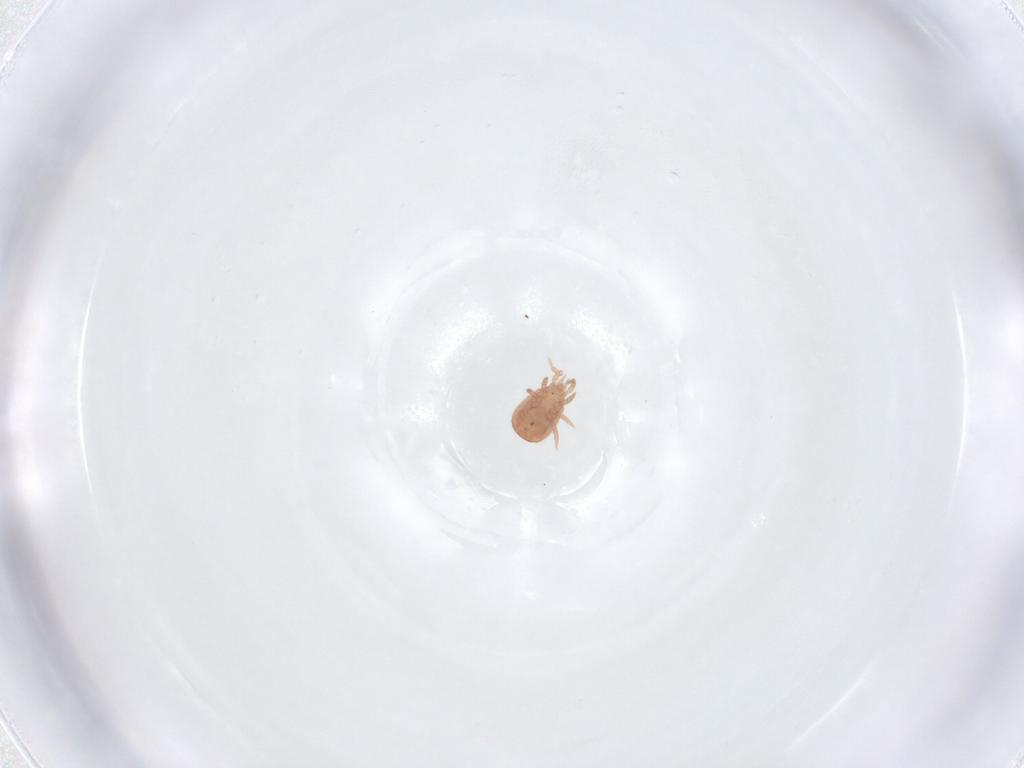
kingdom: Animalia
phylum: Arthropoda
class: Arachnida
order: Mesostigmata
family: Zerconidae
